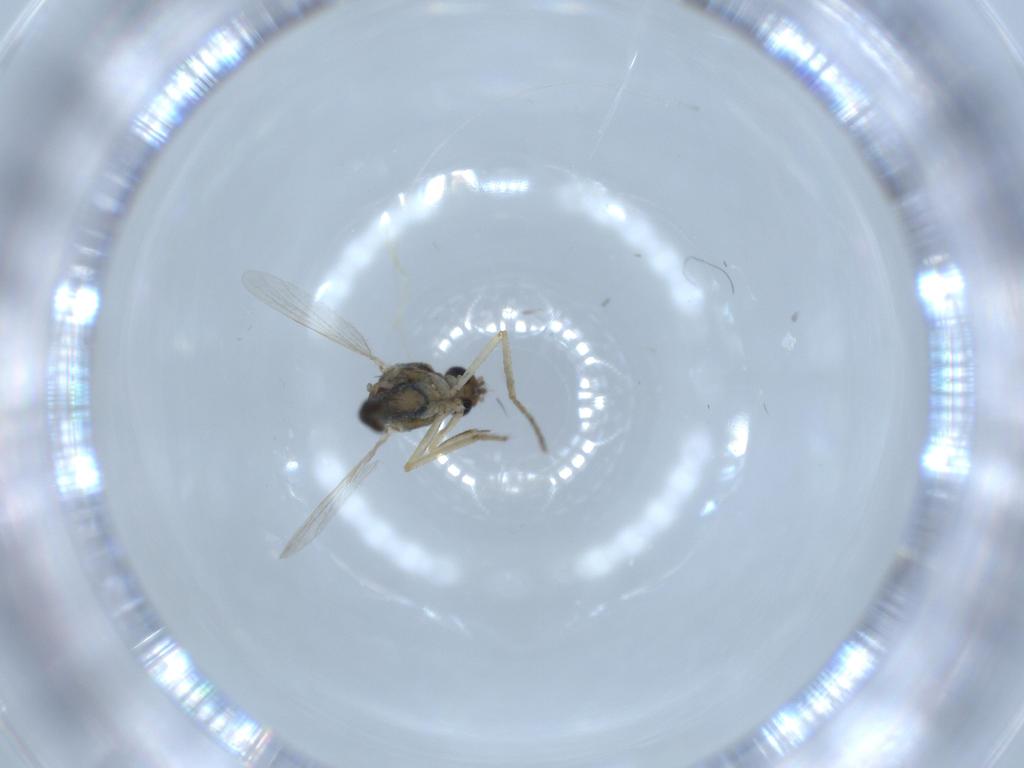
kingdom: Animalia
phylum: Arthropoda
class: Insecta
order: Diptera
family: Ceratopogonidae
